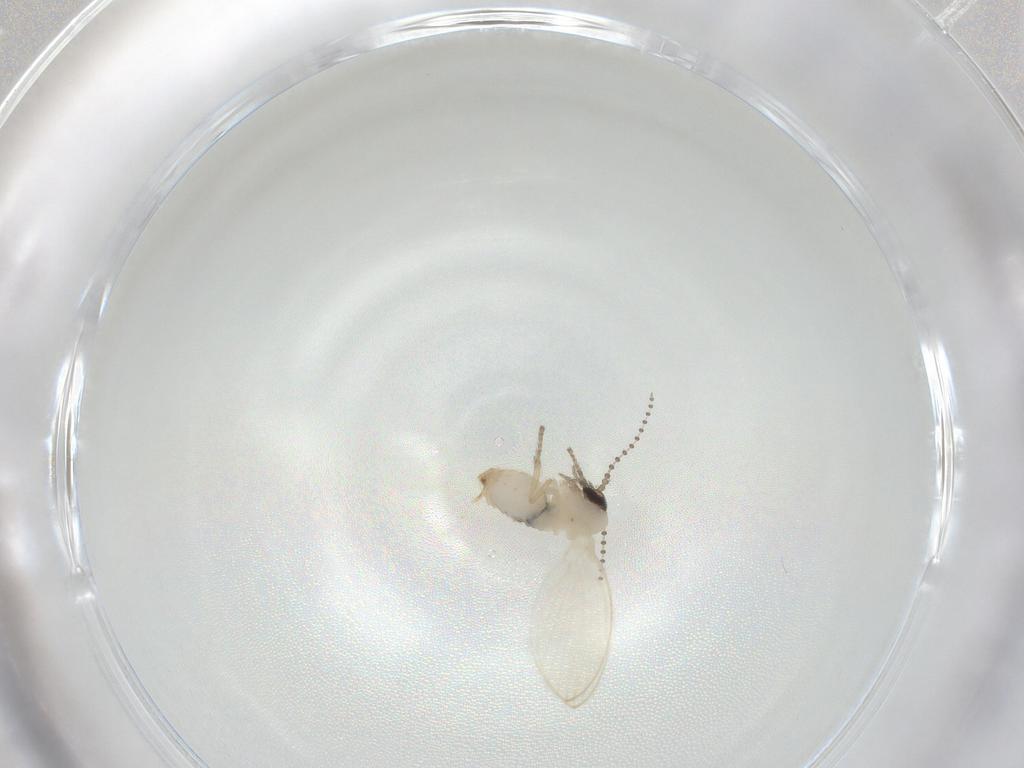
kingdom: Animalia
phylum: Arthropoda
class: Insecta
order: Diptera
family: Psychodidae
